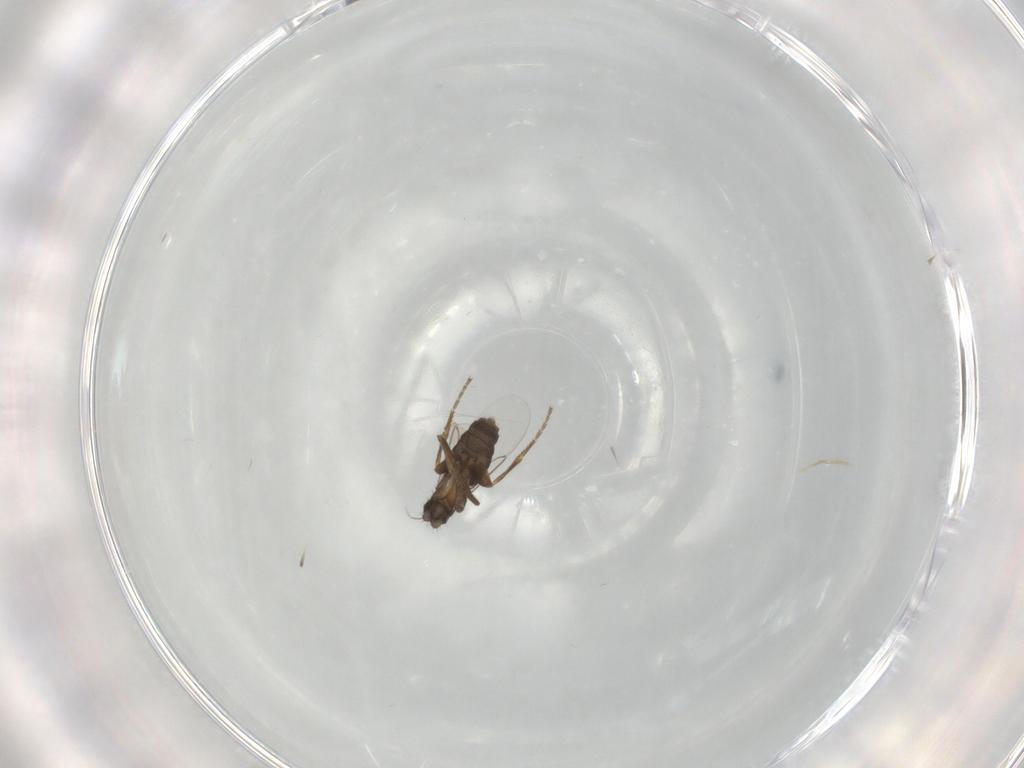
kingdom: Animalia
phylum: Arthropoda
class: Insecta
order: Diptera
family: Phoridae
